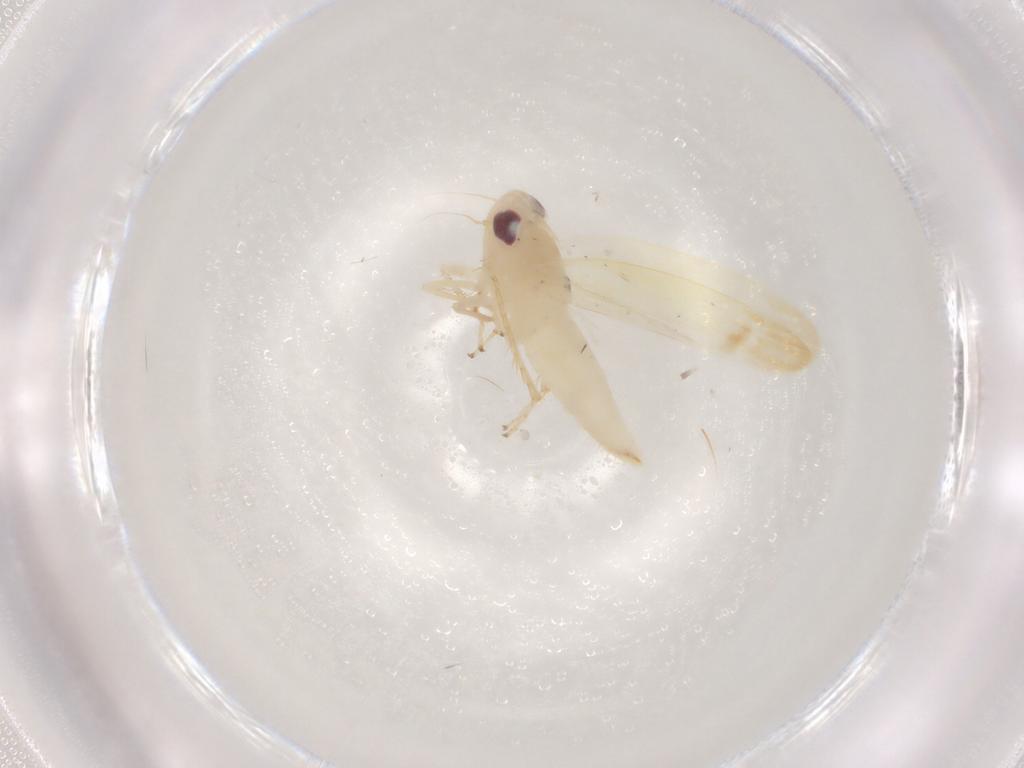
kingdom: Animalia
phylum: Arthropoda
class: Insecta
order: Hemiptera
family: Cicadellidae
